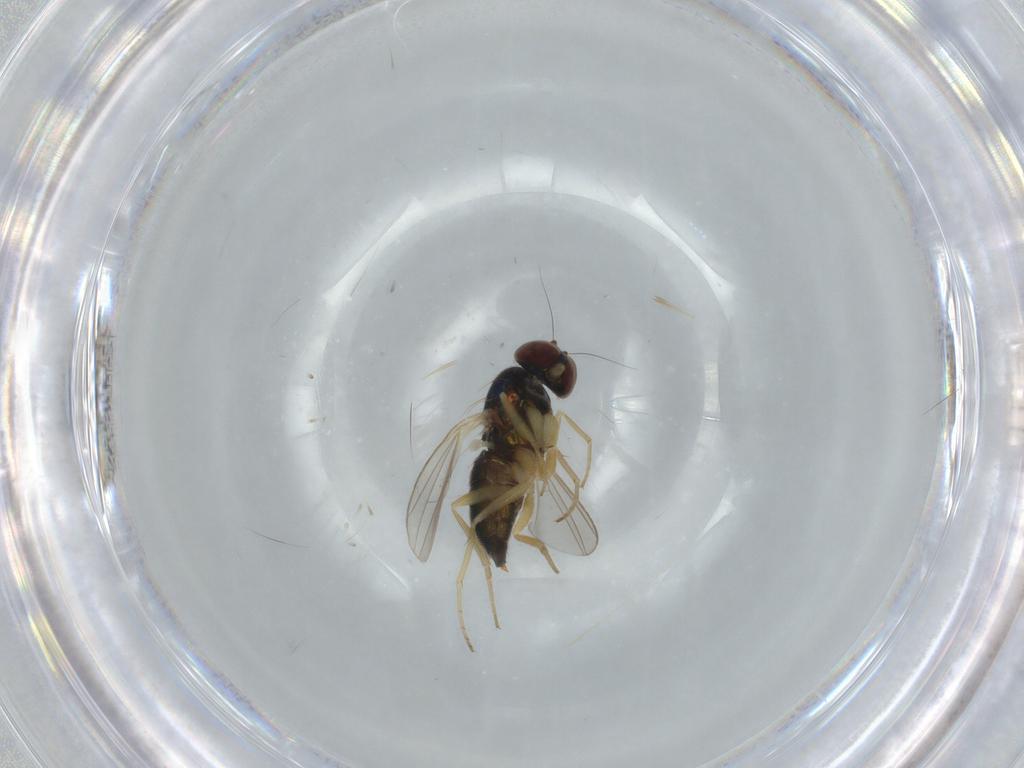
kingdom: Animalia
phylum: Arthropoda
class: Insecta
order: Diptera
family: Dolichopodidae
